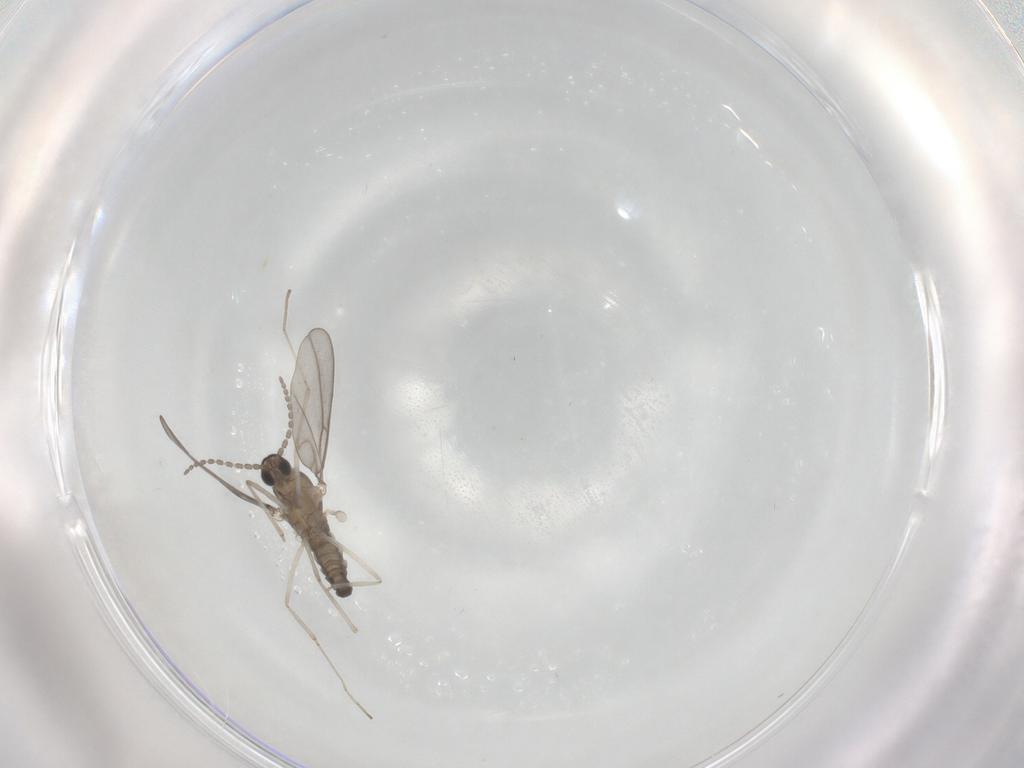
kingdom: Animalia
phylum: Arthropoda
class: Insecta
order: Diptera
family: Cecidomyiidae
